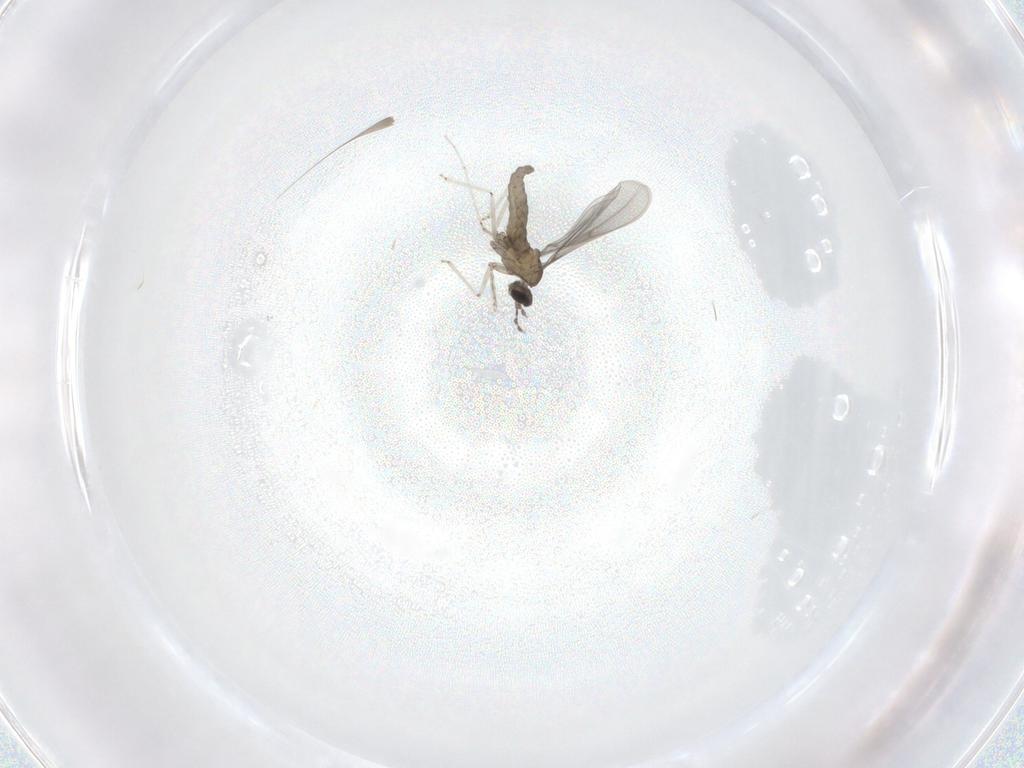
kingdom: Animalia
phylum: Arthropoda
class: Insecta
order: Diptera
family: Cecidomyiidae
